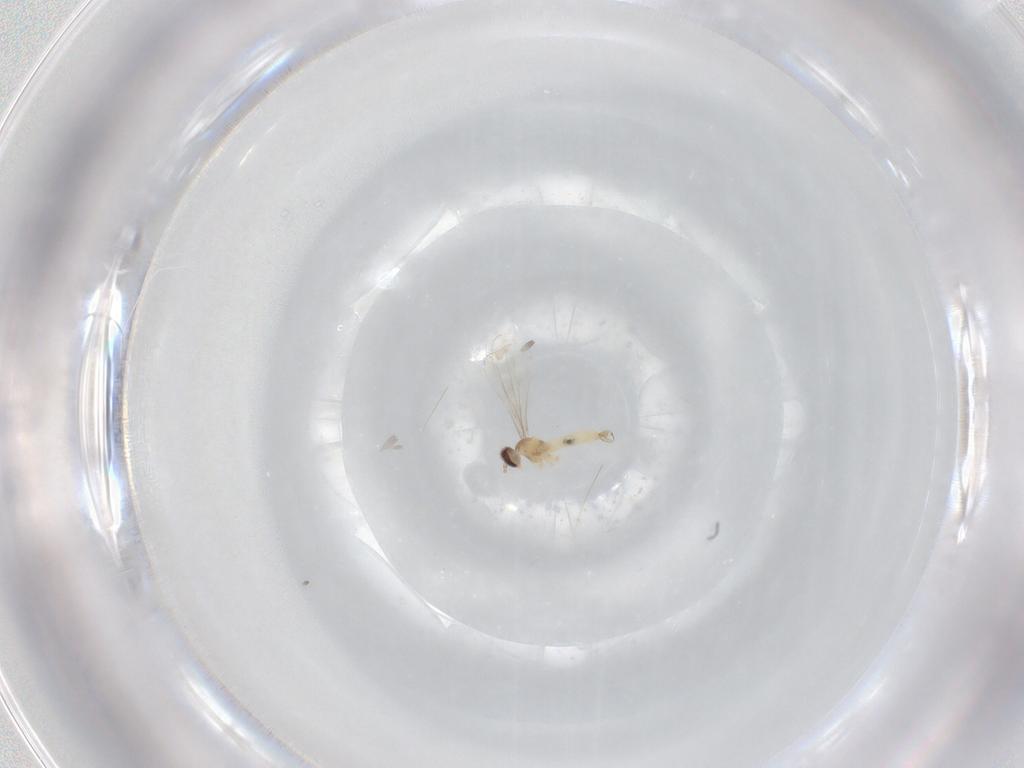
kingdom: Animalia
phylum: Arthropoda
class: Insecta
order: Diptera
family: Cecidomyiidae
